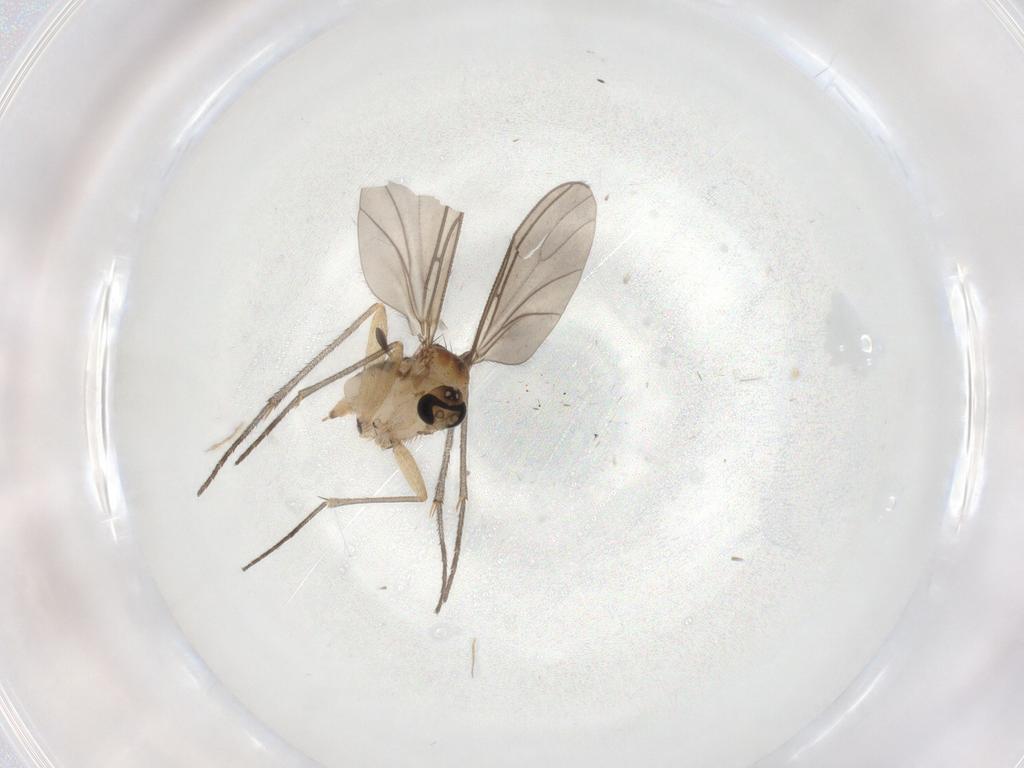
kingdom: Animalia
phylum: Arthropoda
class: Insecta
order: Diptera
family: Sciaridae
